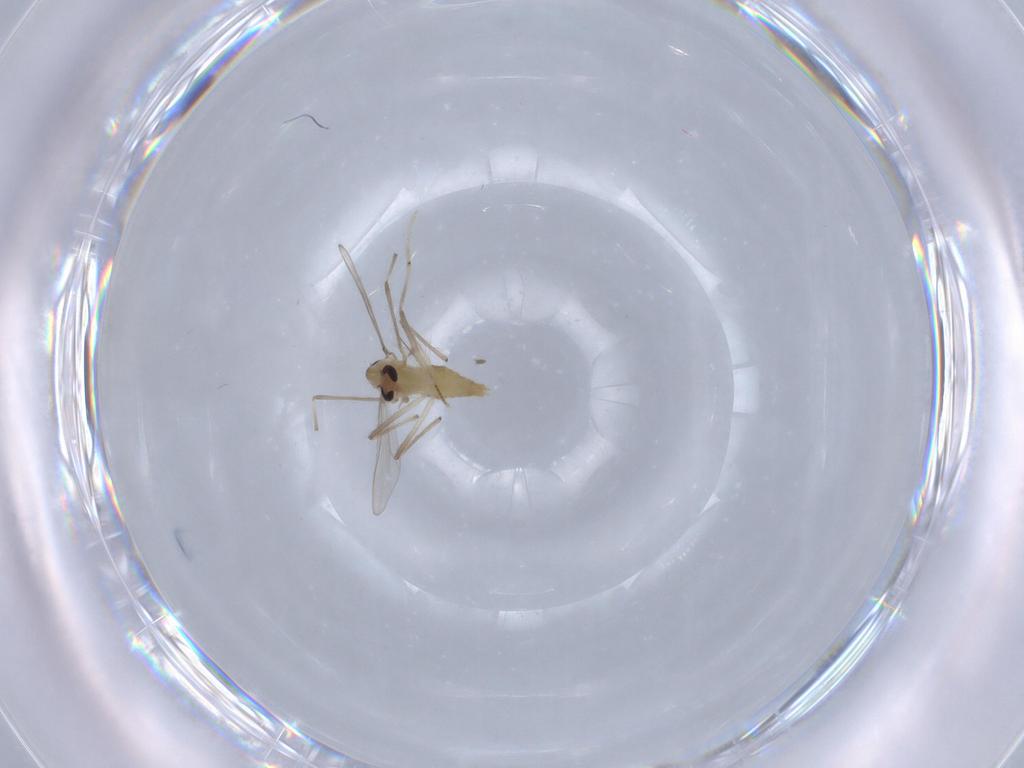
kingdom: Animalia
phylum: Arthropoda
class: Insecta
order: Diptera
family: Chironomidae
